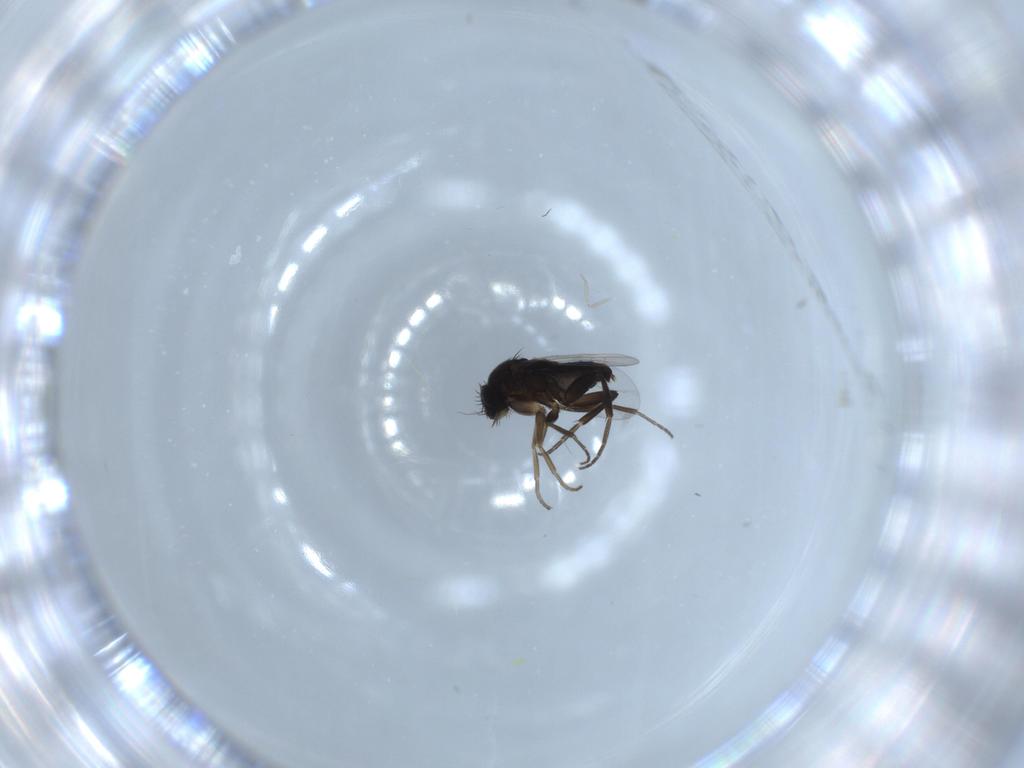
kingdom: Animalia
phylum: Arthropoda
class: Insecta
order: Diptera
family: Phoridae
